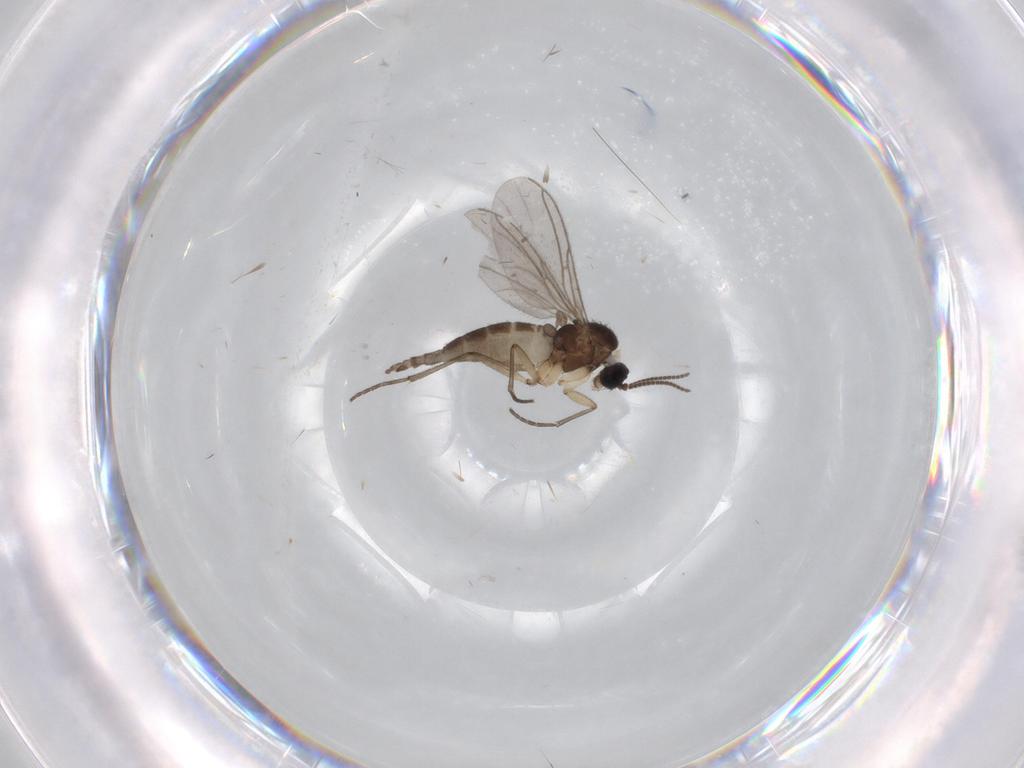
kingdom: Animalia
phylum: Arthropoda
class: Insecta
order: Diptera
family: Sciaridae
